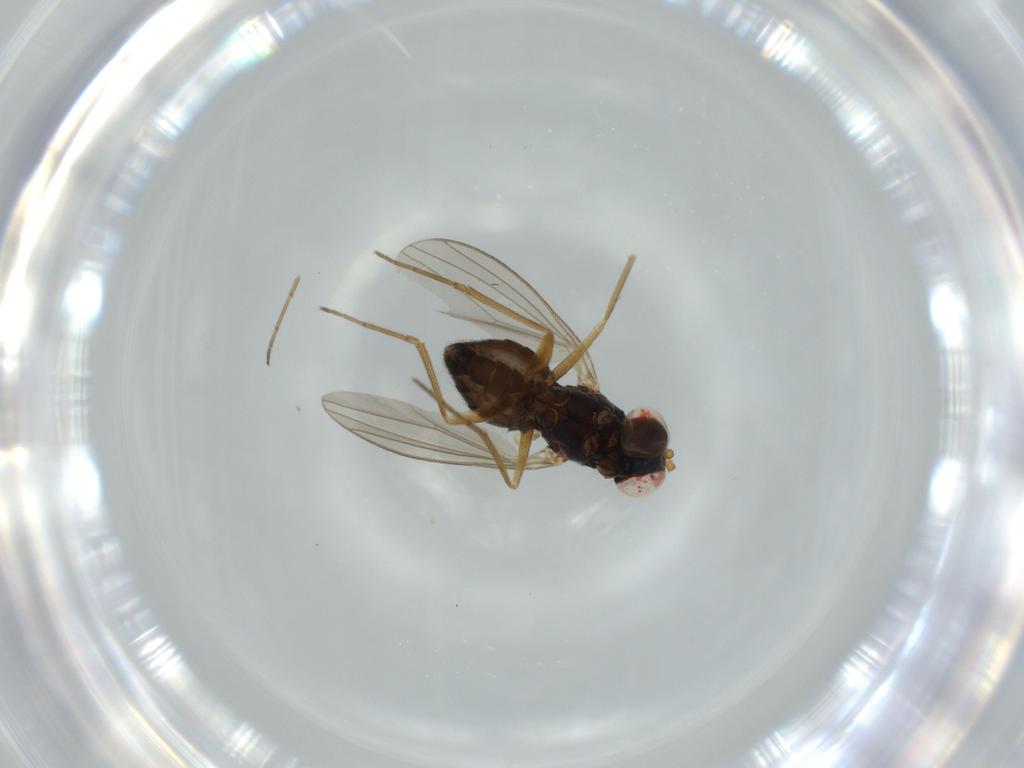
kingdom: Animalia
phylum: Arthropoda
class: Insecta
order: Diptera
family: Dolichopodidae
